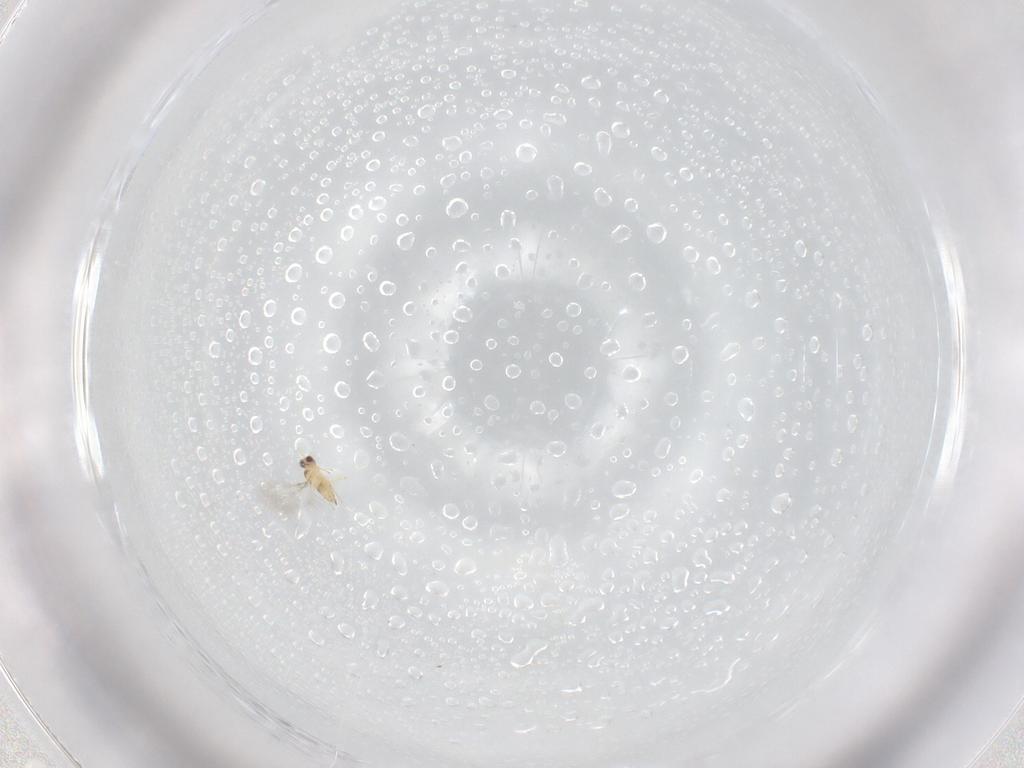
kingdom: Animalia
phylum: Arthropoda
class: Insecta
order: Hymenoptera
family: Mymaridae
